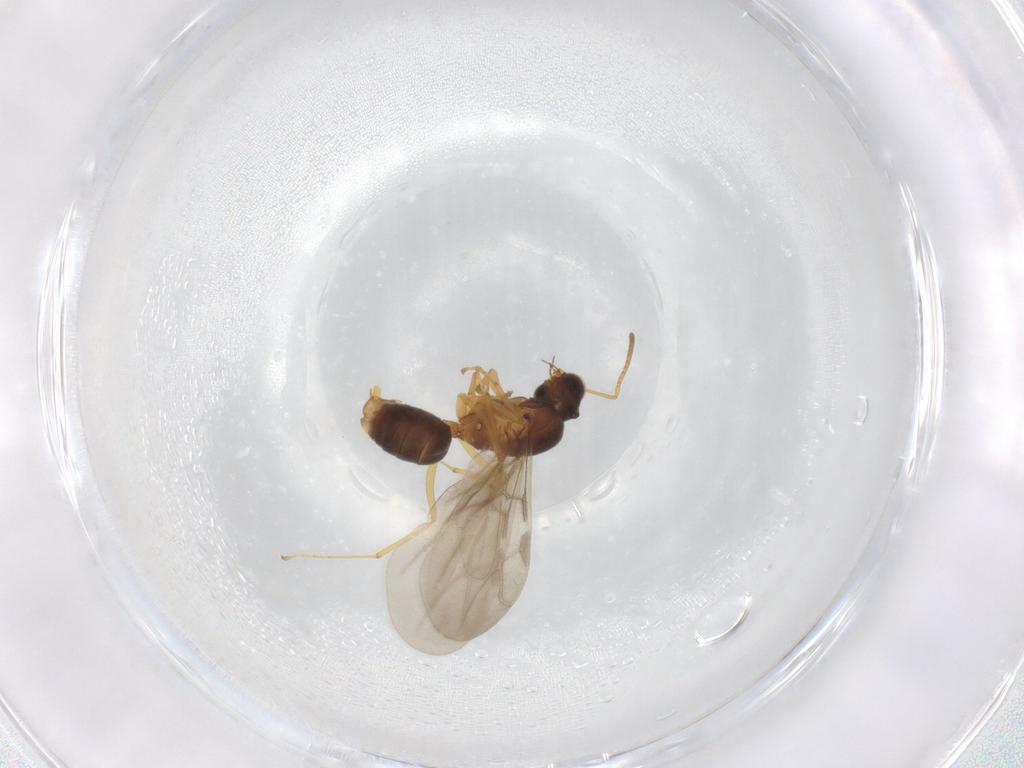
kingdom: Animalia
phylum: Arthropoda
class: Insecta
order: Hymenoptera
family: Formicidae
